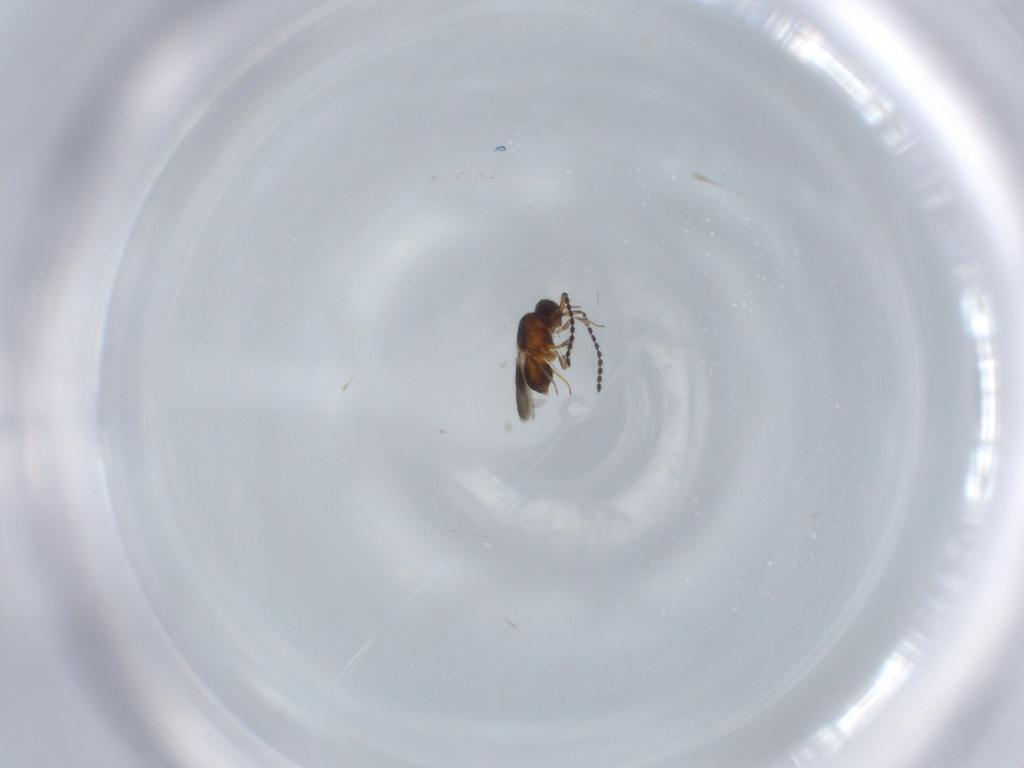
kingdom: Animalia
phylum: Arthropoda
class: Insecta
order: Hymenoptera
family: Ceraphronidae
